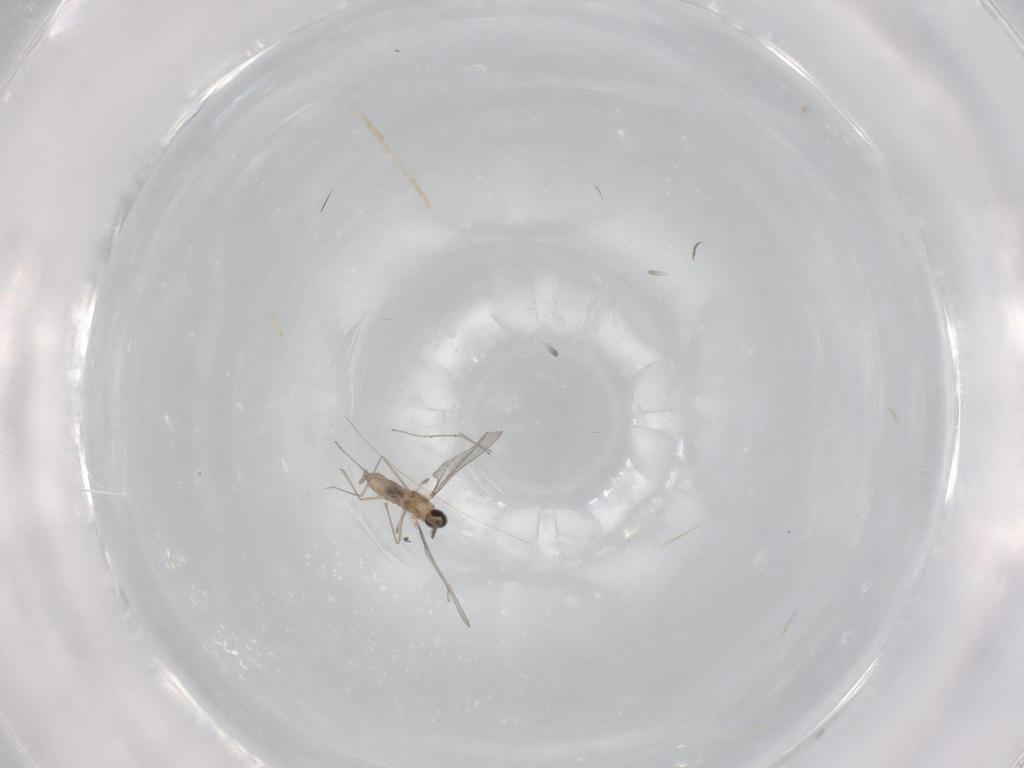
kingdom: Animalia
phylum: Arthropoda
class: Insecta
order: Diptera
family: Cecidomyiidae
